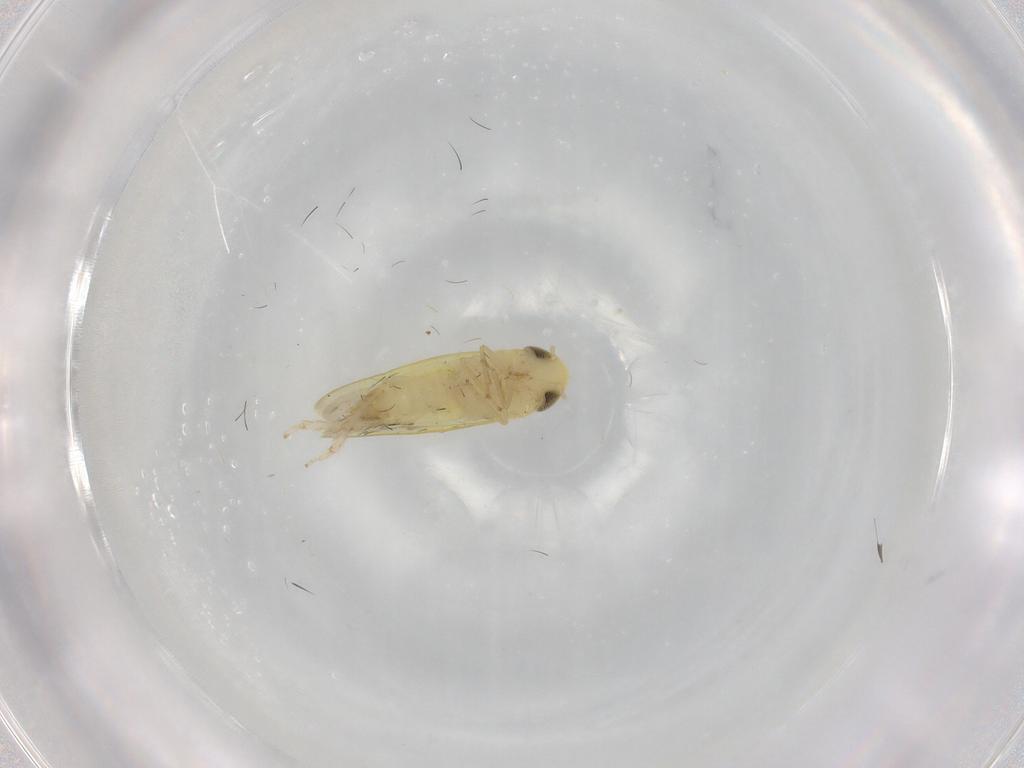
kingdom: Animalia
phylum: Arthropoda
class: Insecta
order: Hemiptera
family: Cicadellidae
